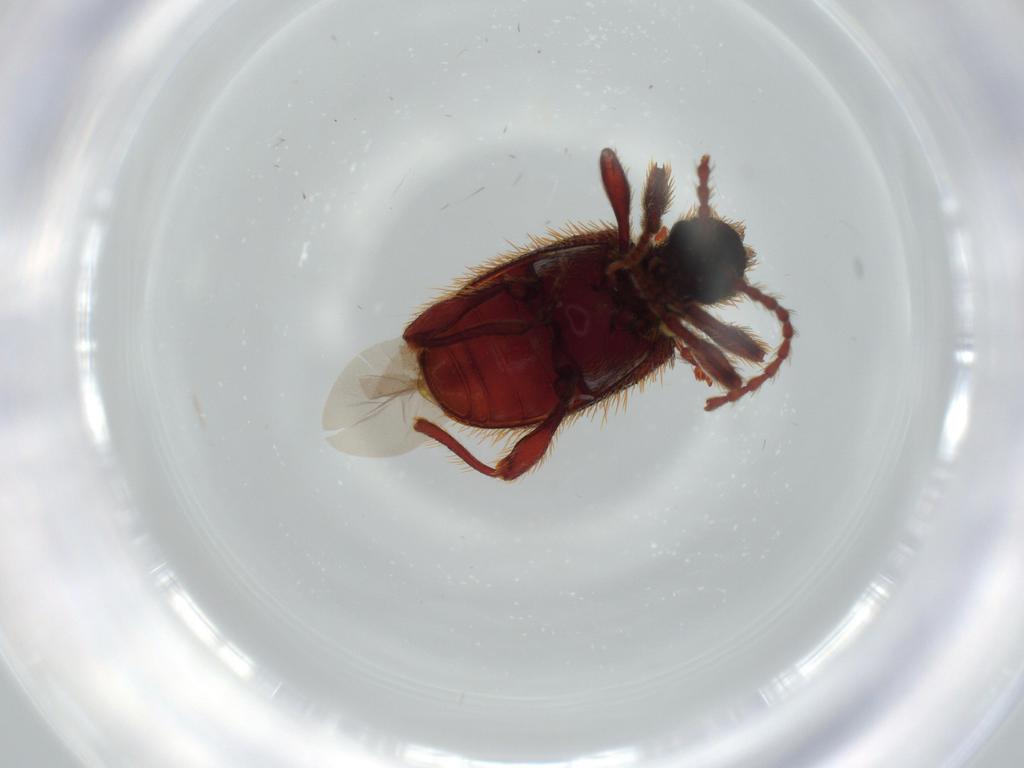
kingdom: Animalia
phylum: Arthropoda
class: Insecta
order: Coleoptera
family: Ptinidae
